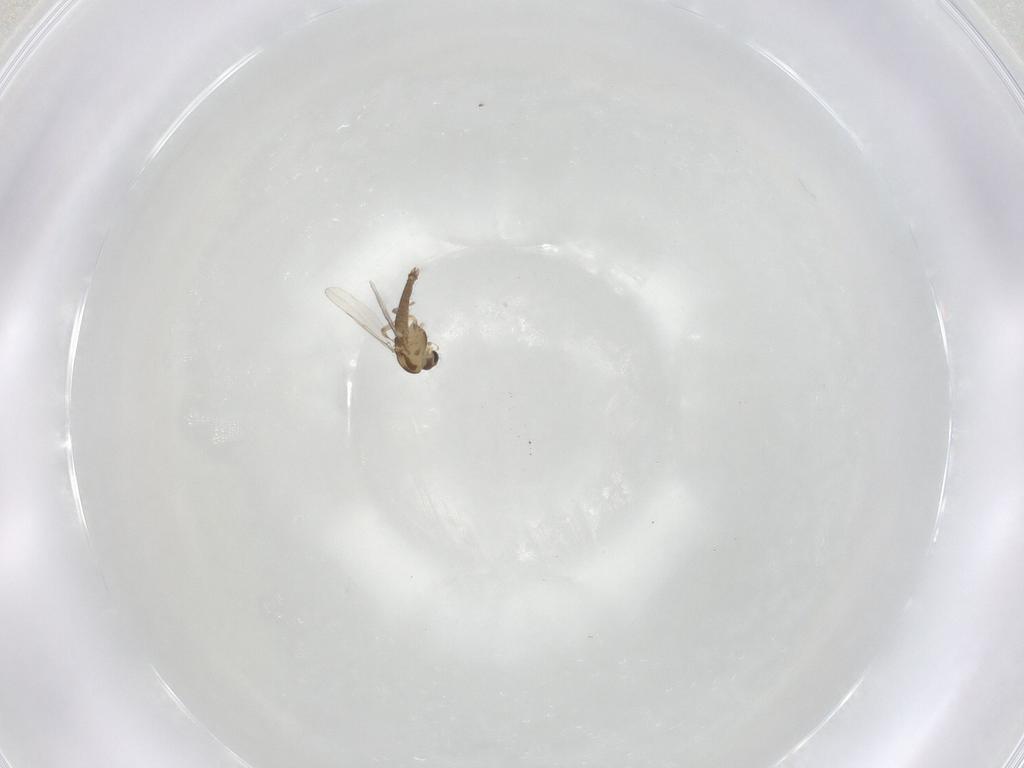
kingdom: Animalia
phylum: Arthropoda
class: Insecta
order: Diptera
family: Chironomidae
